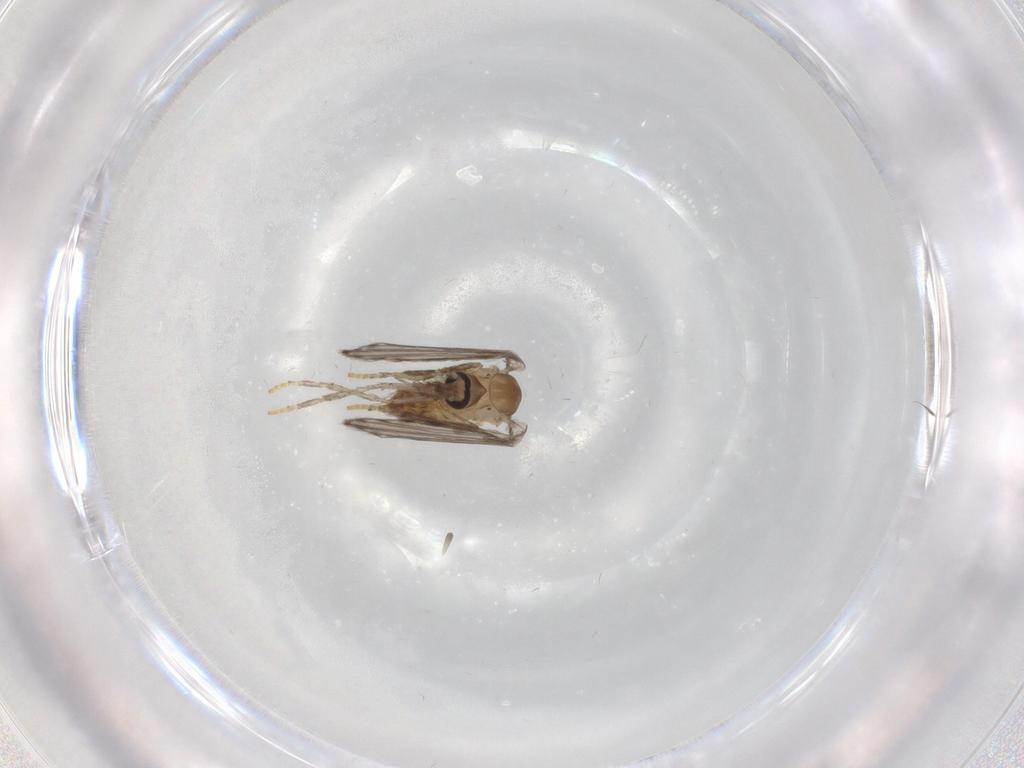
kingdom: Animalia
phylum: Arthropoda
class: Insecta
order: Diptera
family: Psychodidae
